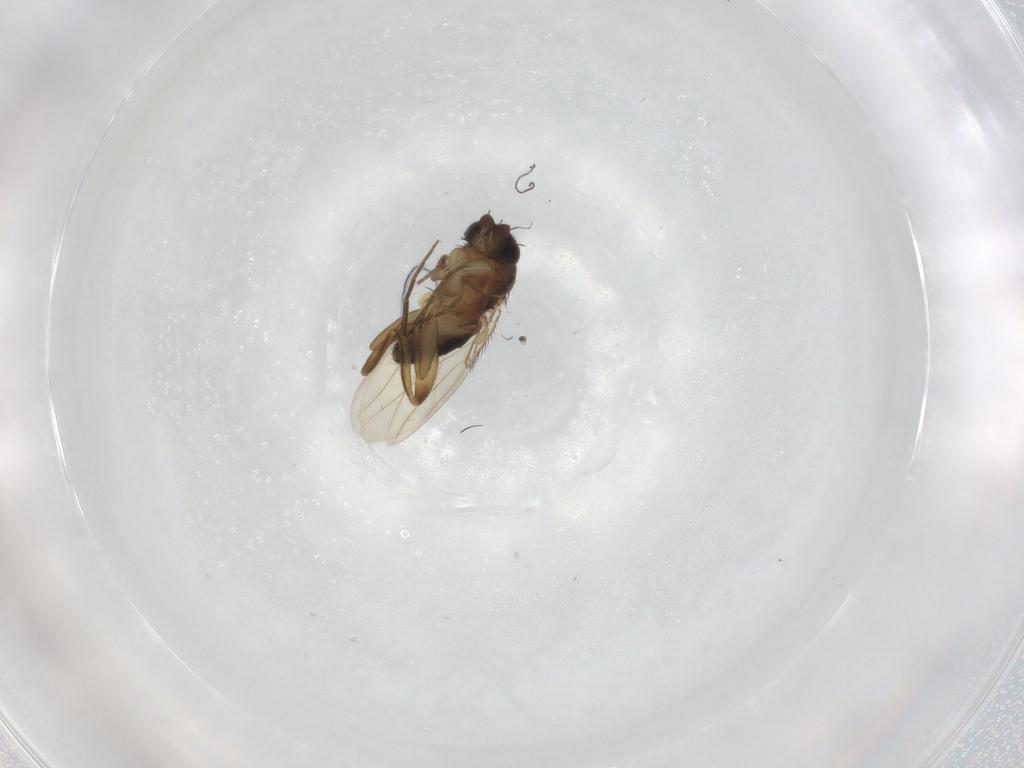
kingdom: Animalia
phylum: Arthropoda
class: Insecta
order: Diptera
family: Phoridae
